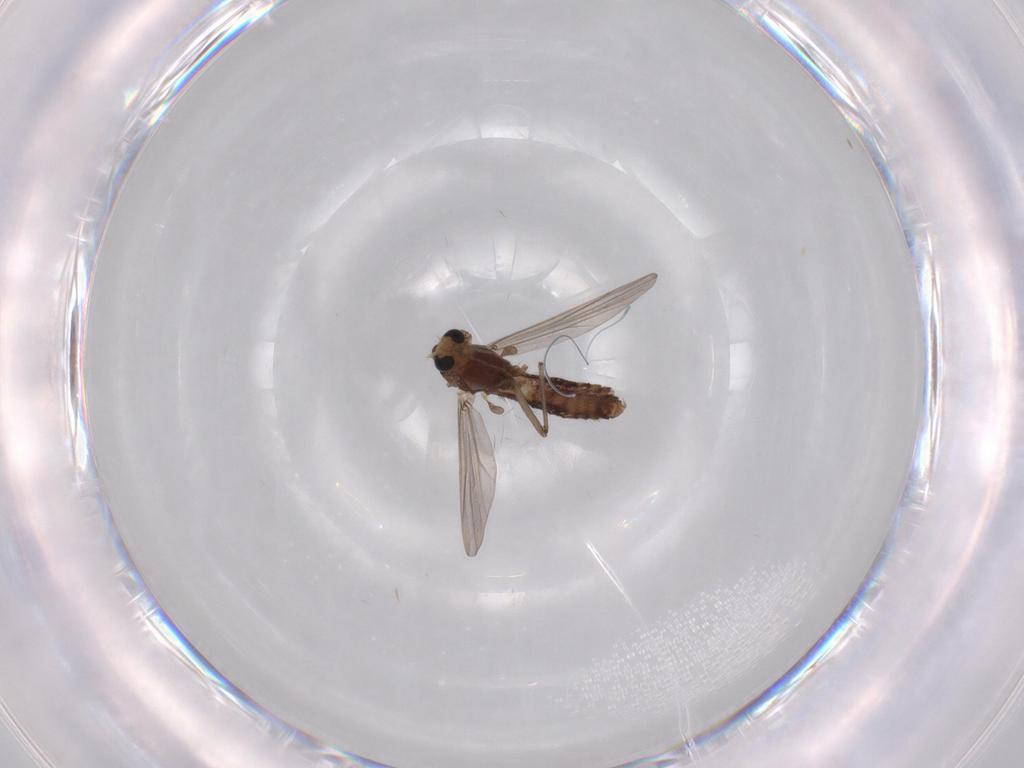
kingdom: Animalia
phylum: Arthropoda
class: Insecta
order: Diptera
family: Chironomidae
